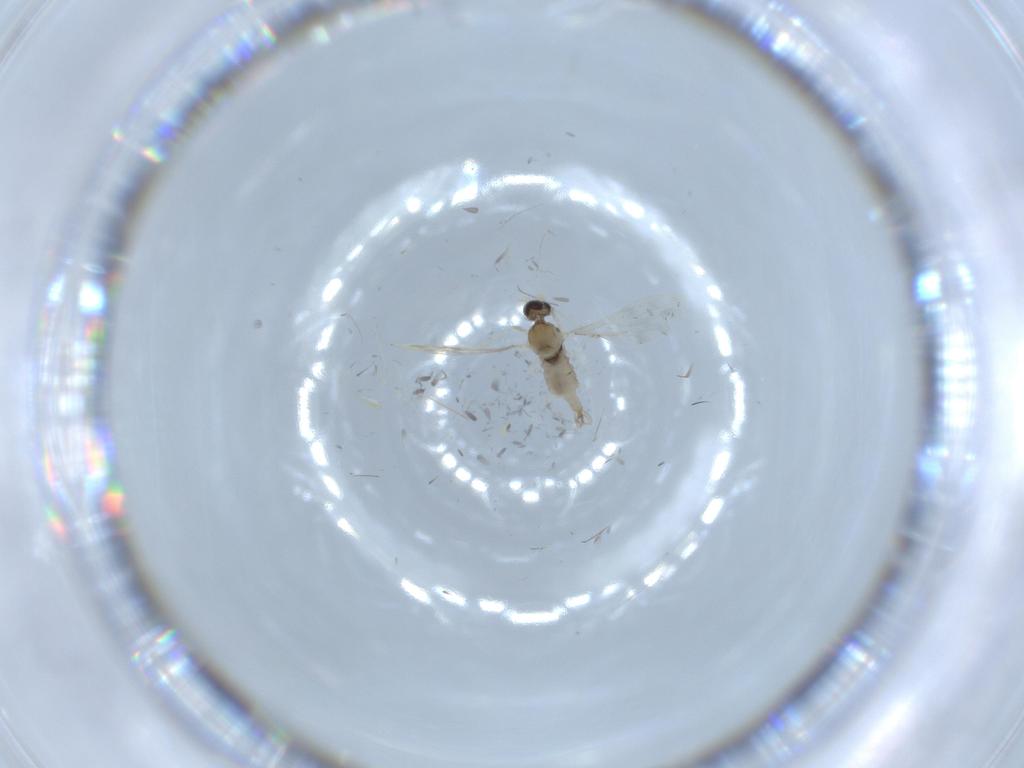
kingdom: Animalia
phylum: Arthropoda
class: Insecta
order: Diptera
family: Cecidomyiidae
